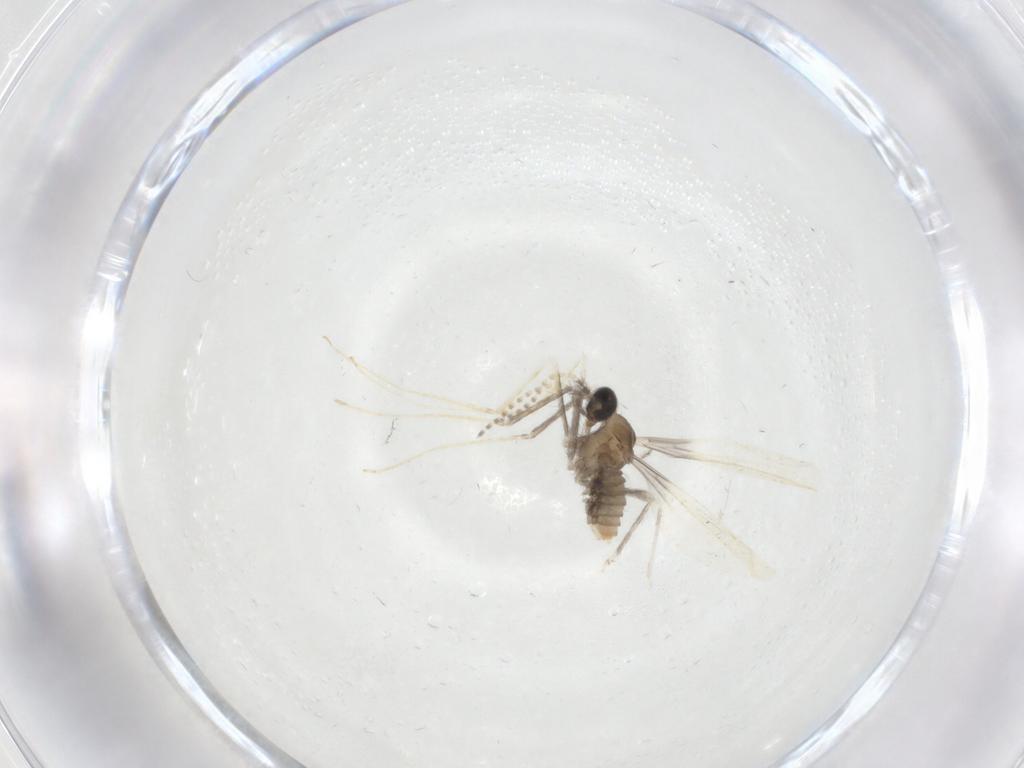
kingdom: Animalia
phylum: Arthropoda
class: Insecta
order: Diptera
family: Cecidomyiidae
